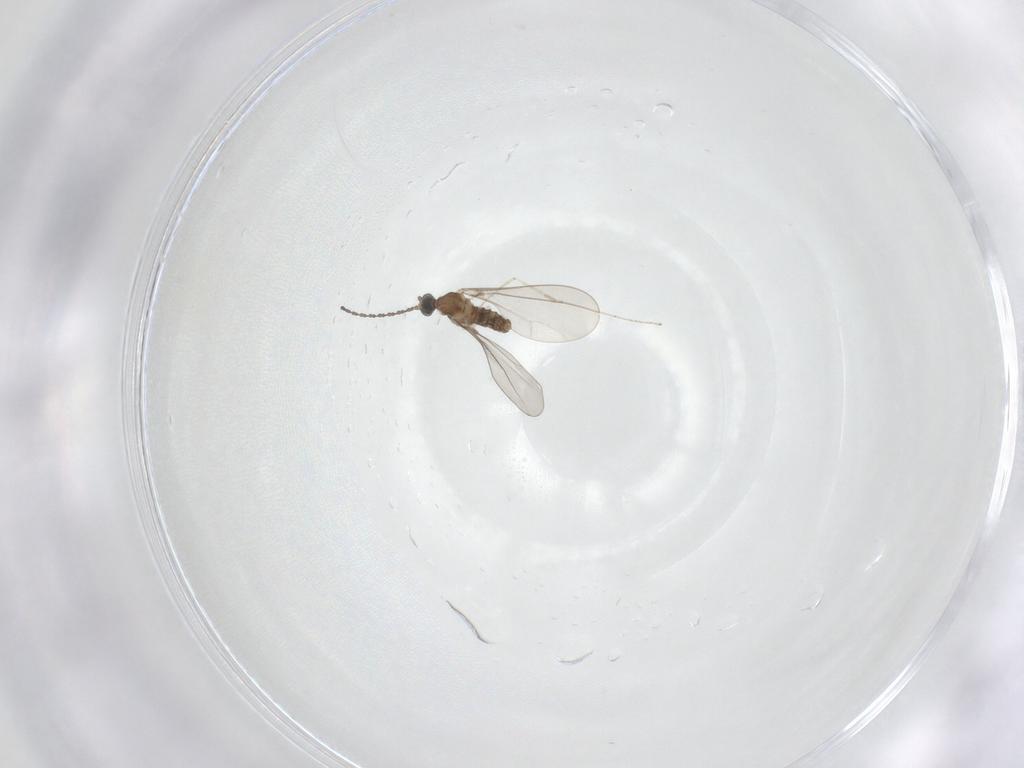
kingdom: Animalia
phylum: Arthropoda
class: Insecta
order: Diptera
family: Cecidomyiidae
